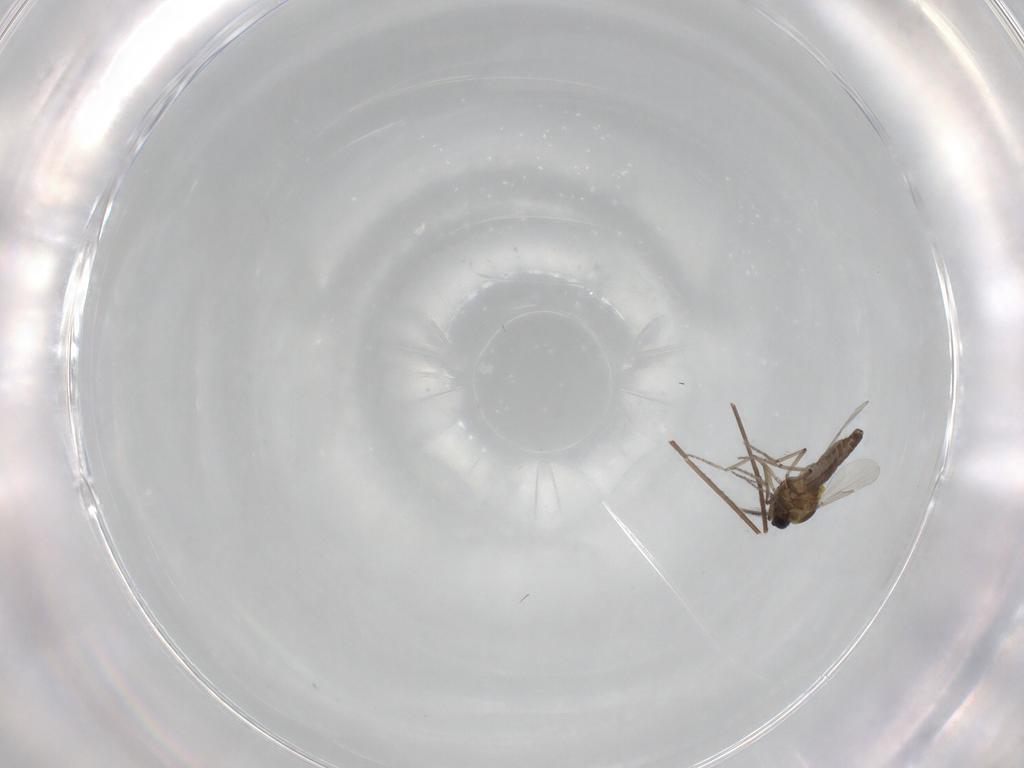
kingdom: Animalia
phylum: Arthropoda
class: Insecta
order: Diptera
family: Ceratopogonidae
